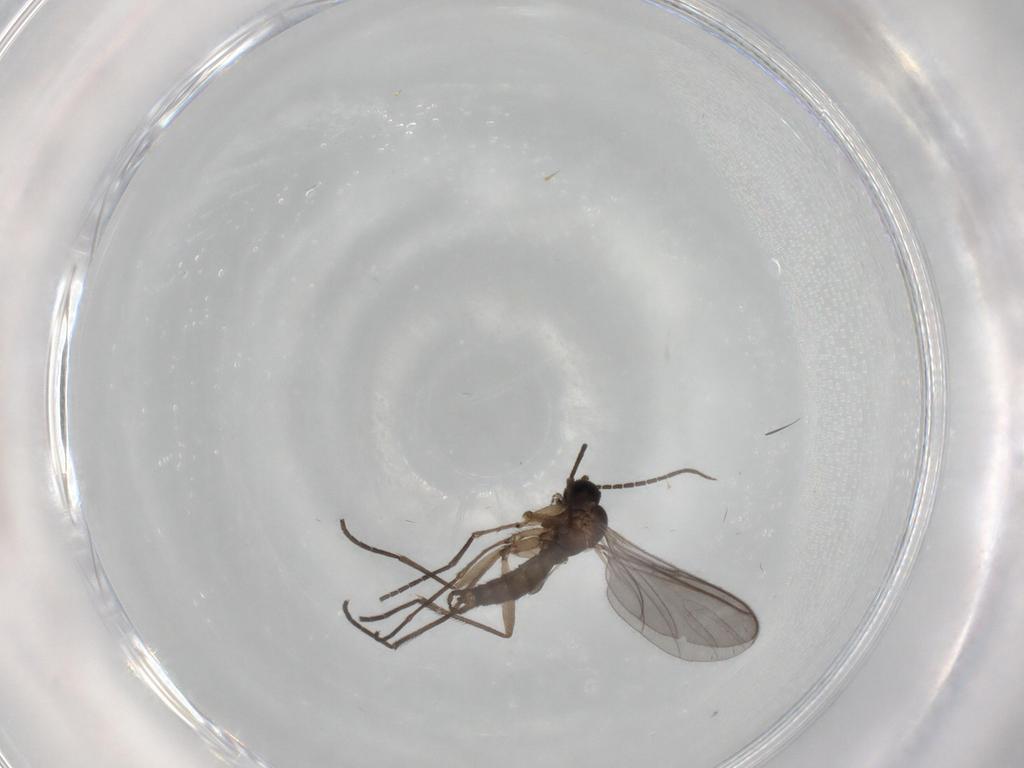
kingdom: Animalia
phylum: Arthropoda
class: Insecta
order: Diptera
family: Sciaridae
